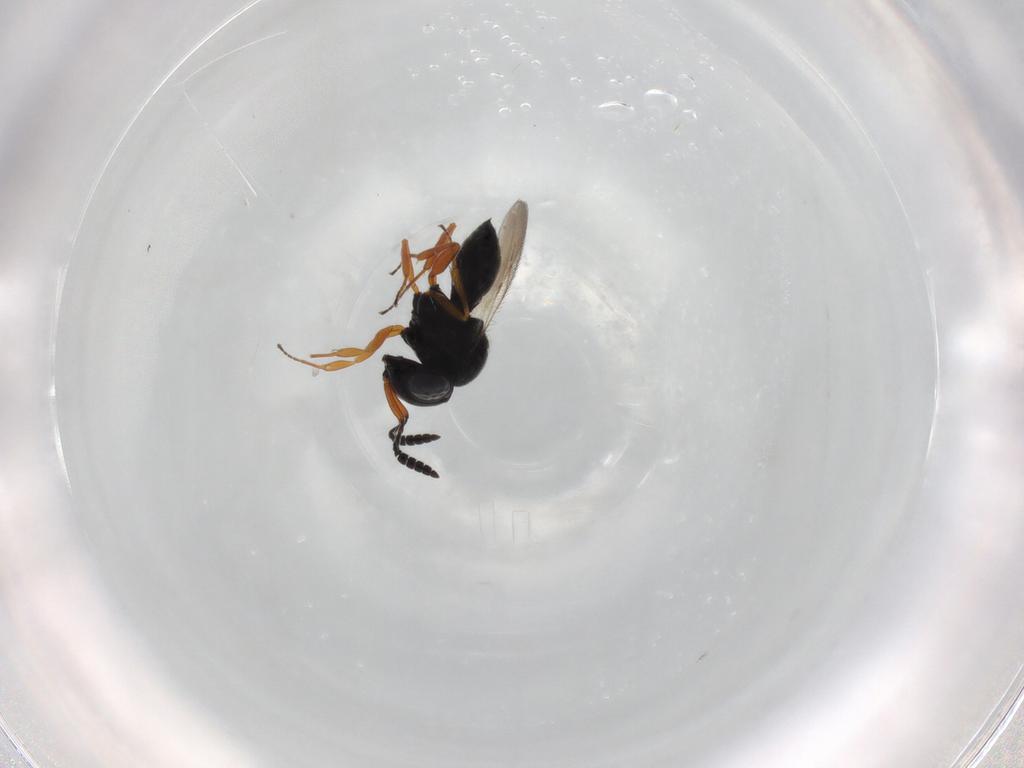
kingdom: Animalia
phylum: Arthropoda
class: Insecta
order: Hymenoptera
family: Scelionidae
